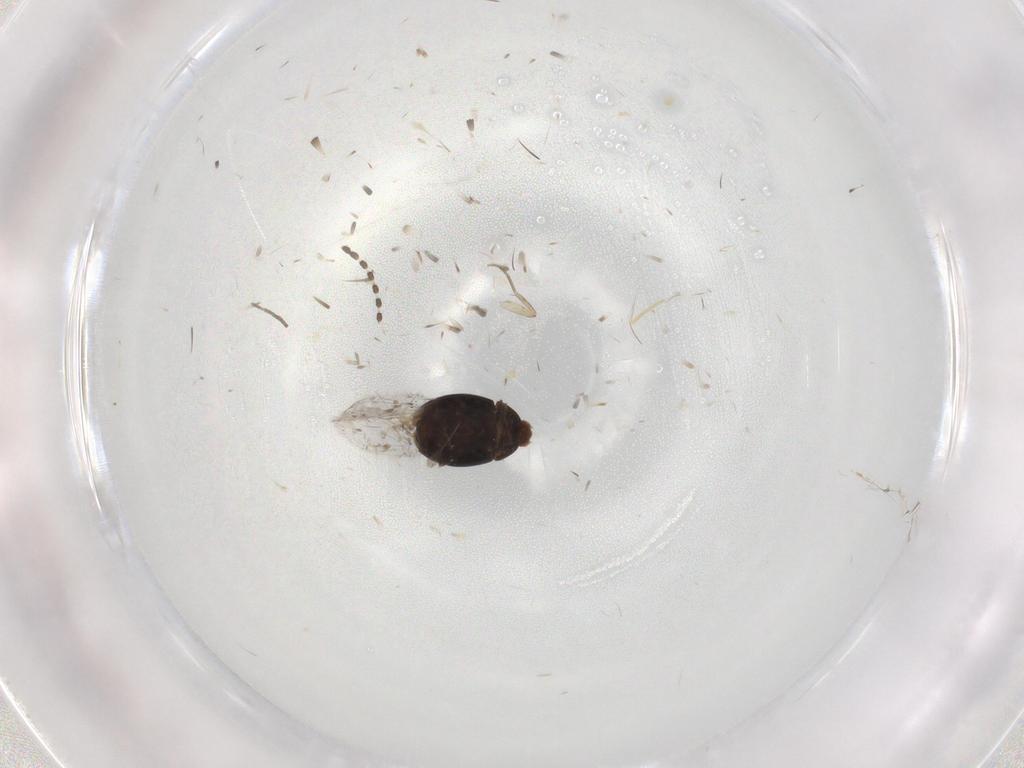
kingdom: Animalia
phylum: Arthropoda
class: Insecta
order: Coleoptera
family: Corylophidae
